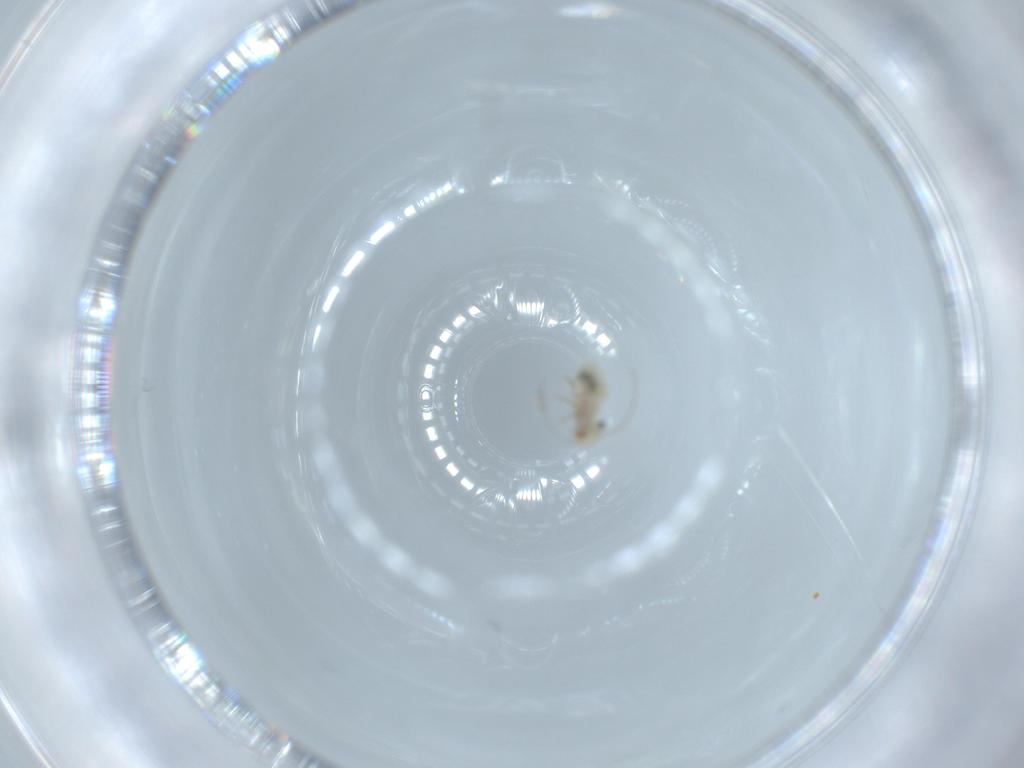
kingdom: Animalia
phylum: Arthropoda
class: Insecta
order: Psocodea
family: Lachesillidae
